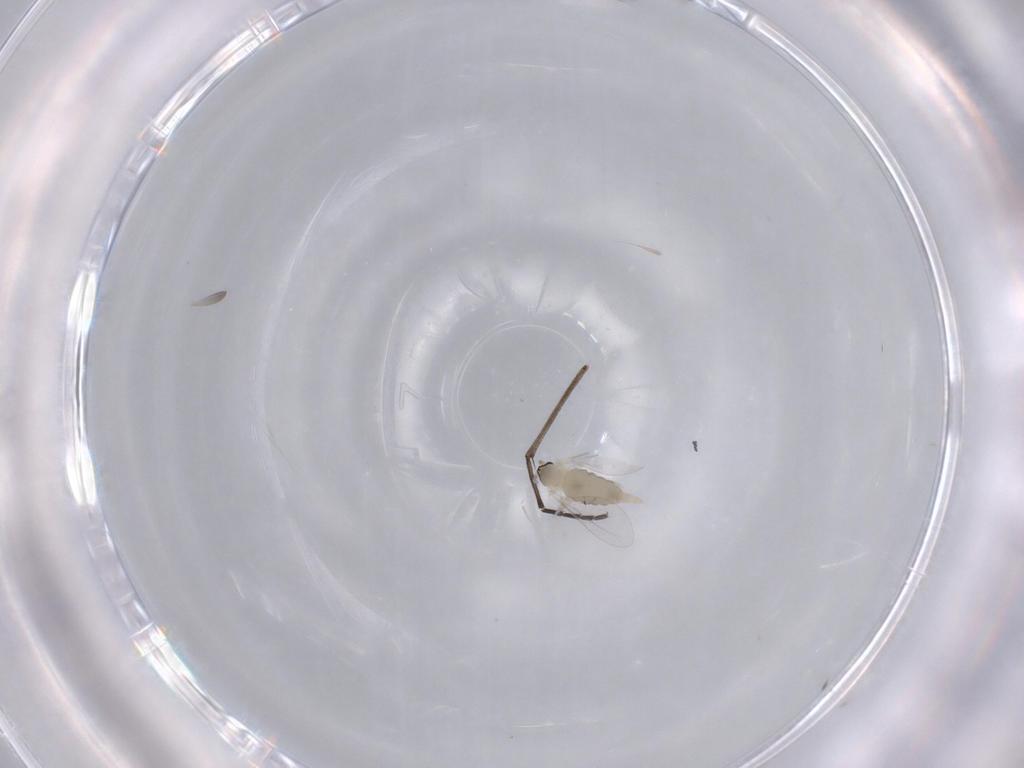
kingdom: Animalia
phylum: Arthropoda
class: Insecta
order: Diptera
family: Cecidomyiidae
